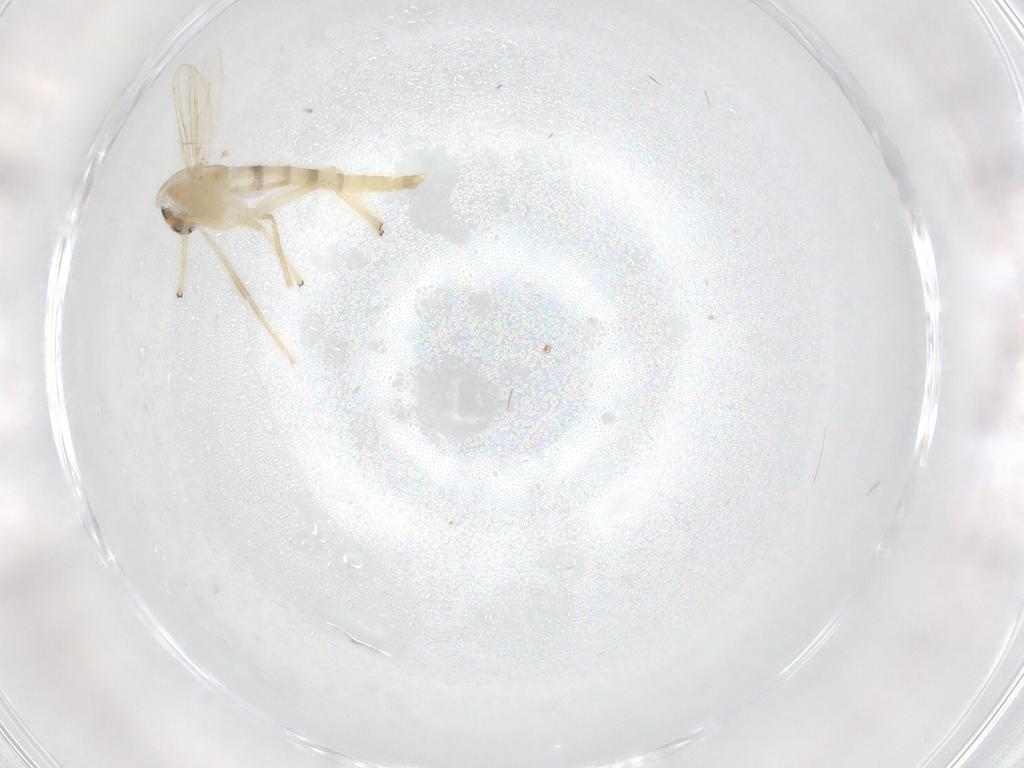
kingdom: Animalia
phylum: Arthropoda
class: Insecta
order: Diptera
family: Chironomidae
